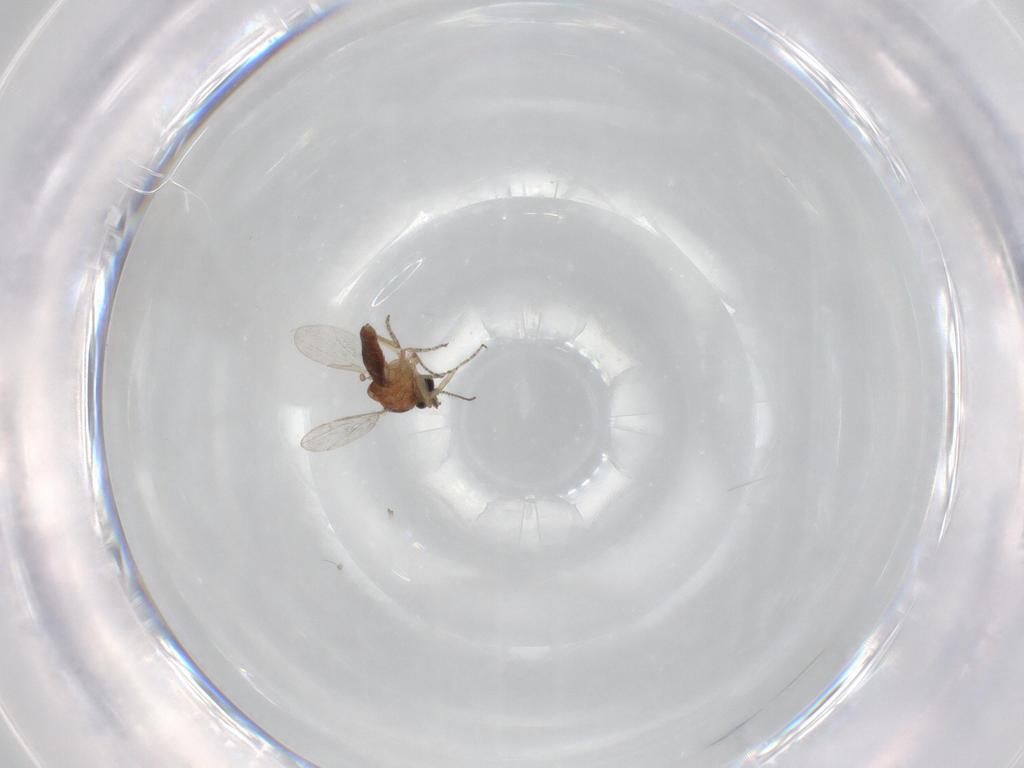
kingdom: Animalia
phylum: Arthropoda
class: Insecta
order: Diptera
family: Ceratopogonidae
